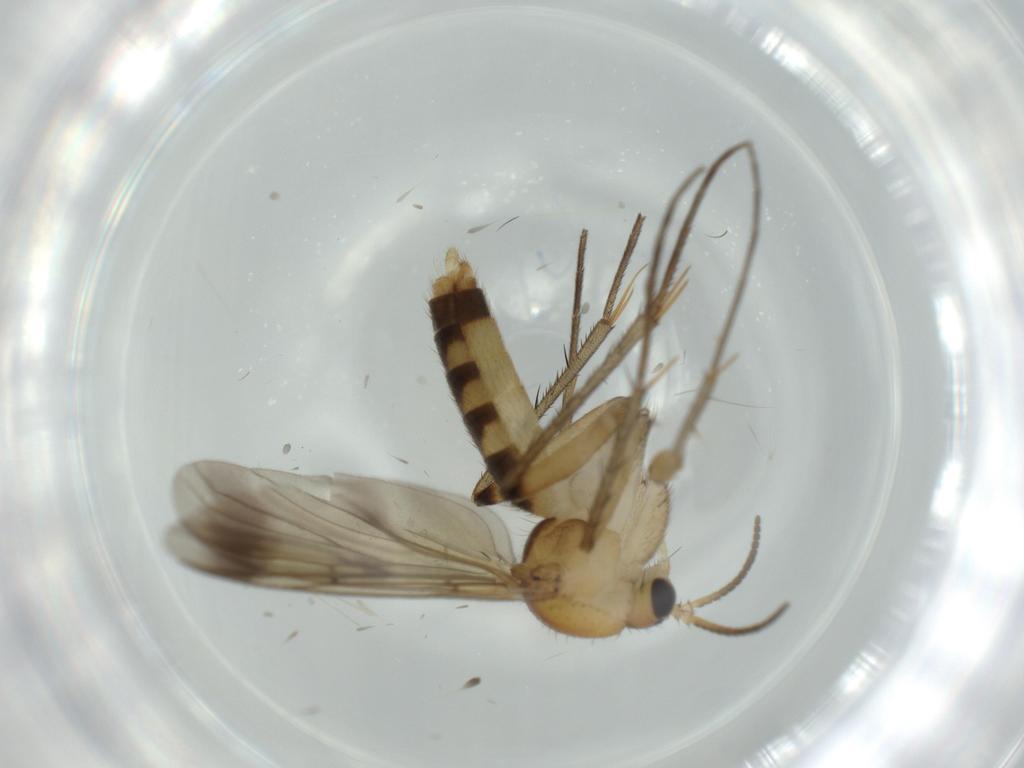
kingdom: Animalia
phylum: Arthropoda
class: Insecta
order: Diptera
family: Mycetophilidae
